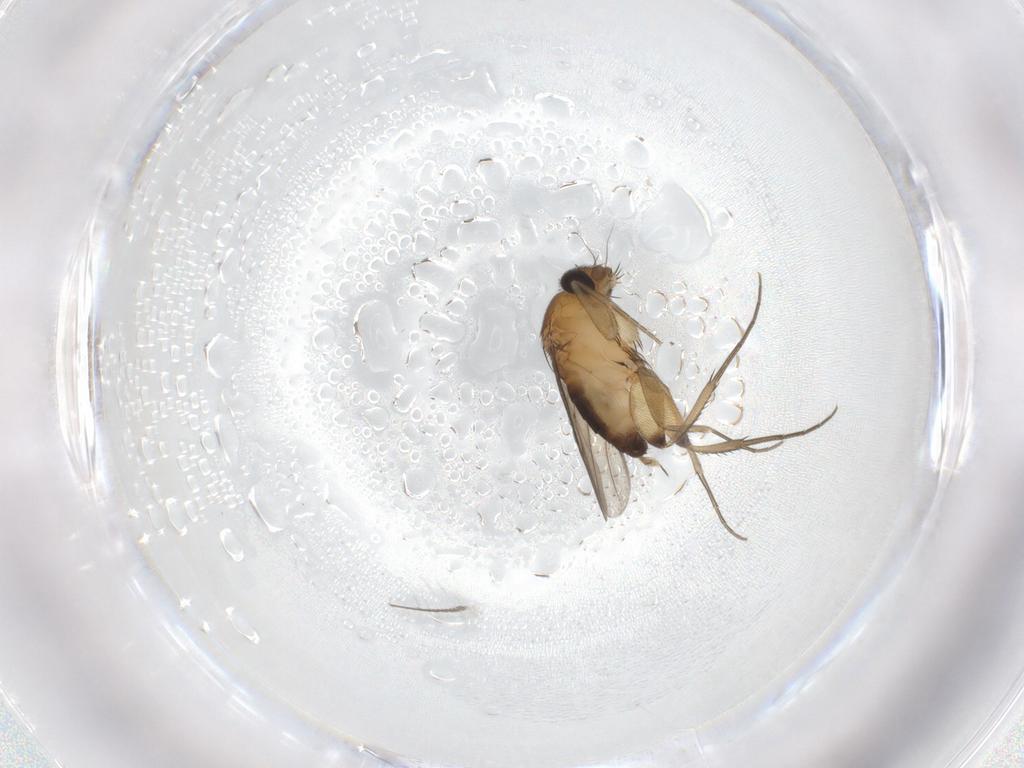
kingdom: Animalia
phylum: Arthropoda
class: Insecta
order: Diptera
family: Phoridae
